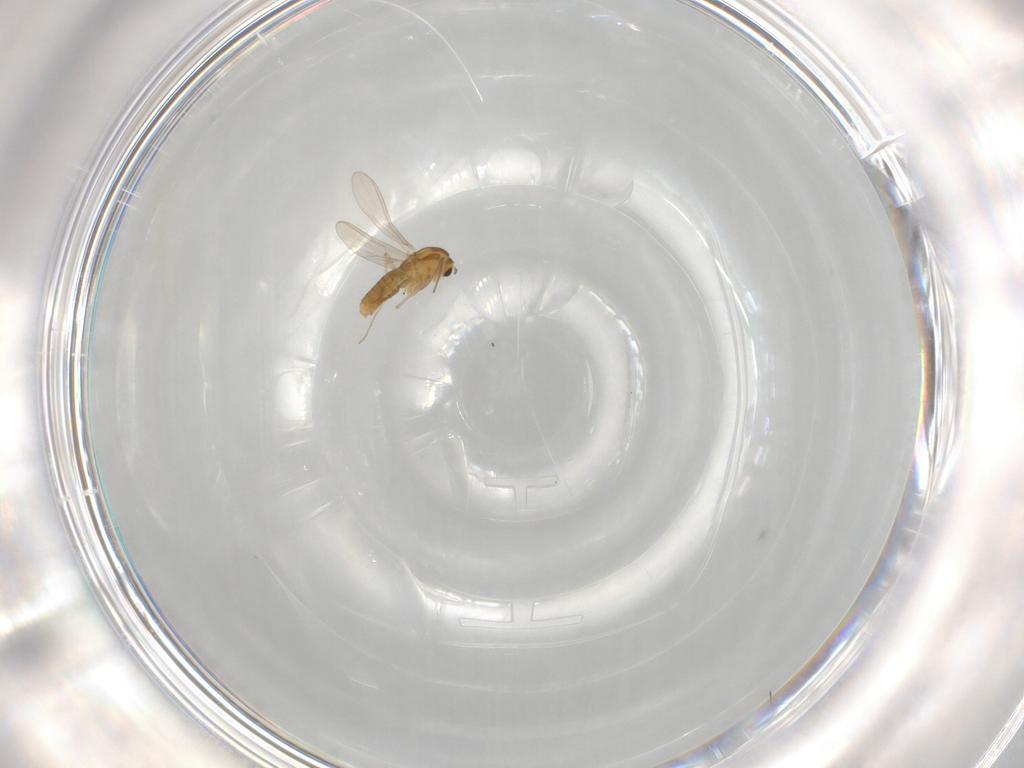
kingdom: Animalia
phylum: Arthropoda
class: Insecta
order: Diptera
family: Chironomidae
